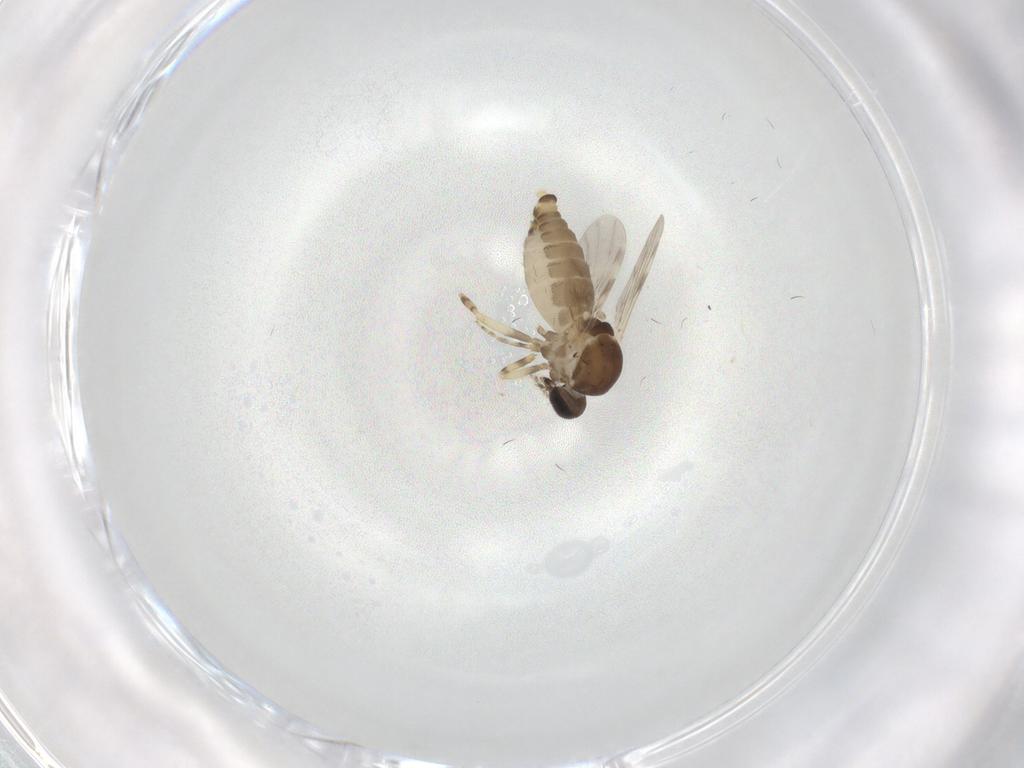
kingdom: Animalia
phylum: Arthropoda
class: Insecta
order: Diptera
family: Ceratopogonidae
